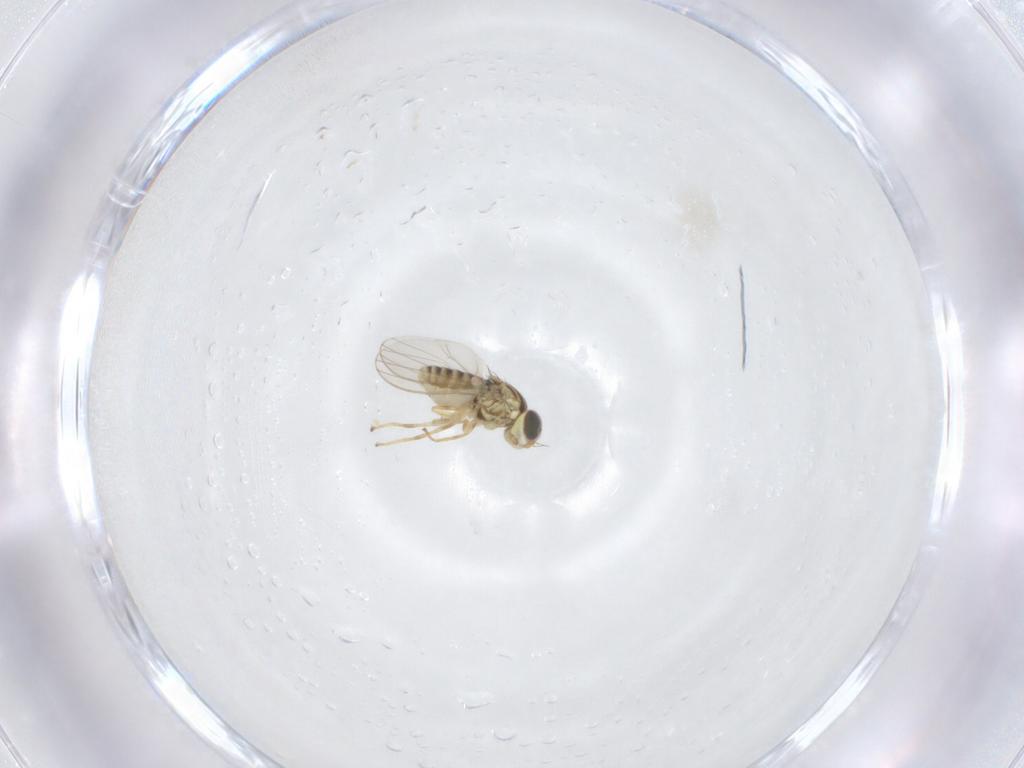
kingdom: Animalia
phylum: Arthropoda
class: Insecta
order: Diptera
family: Chyromyidae
